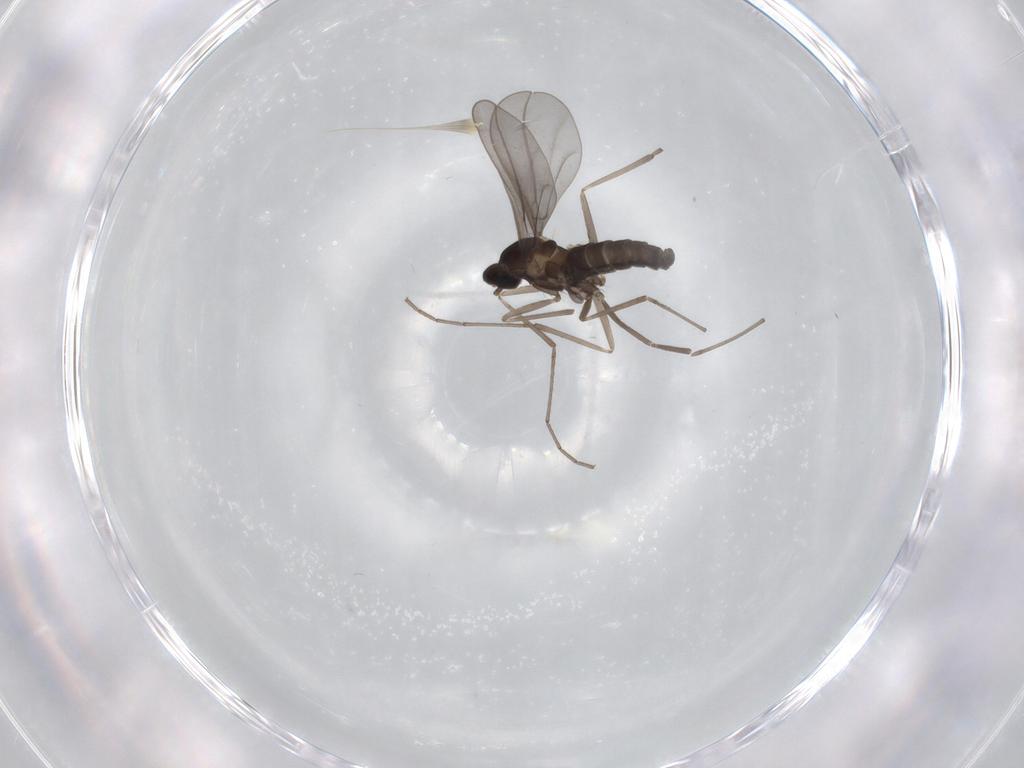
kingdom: Animalia
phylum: Arthropoda
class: Insecta
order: Diptera
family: Cecidomyiidae
